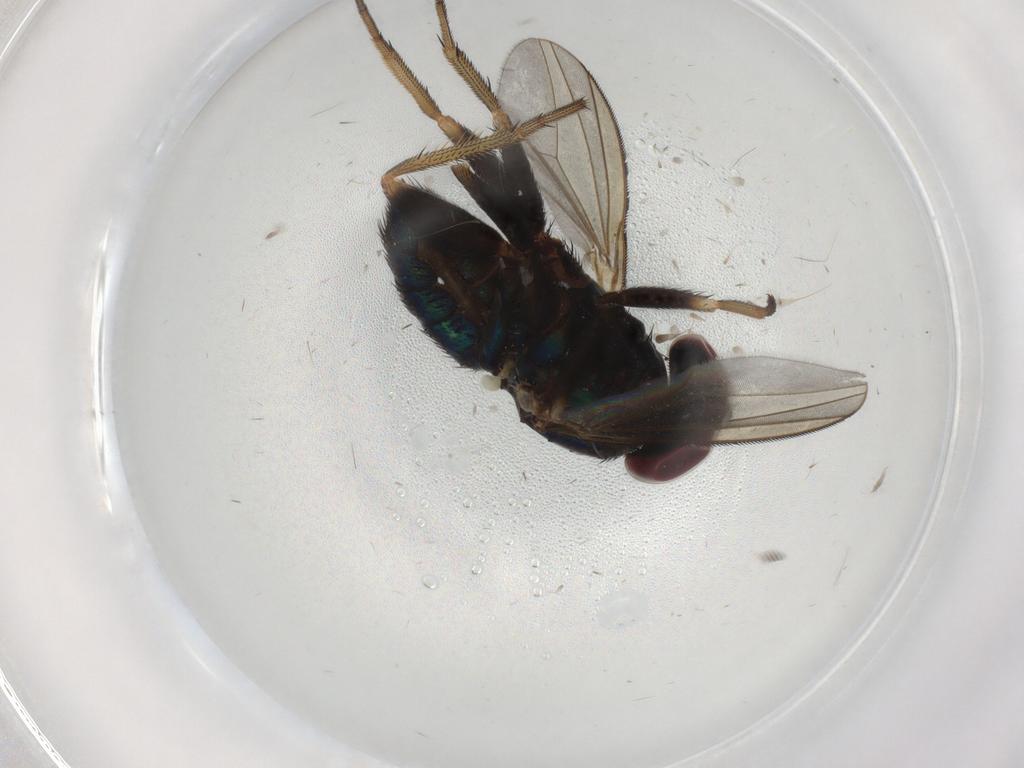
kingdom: Animalia
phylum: Arthropoda
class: Insecta
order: Diptera
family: Dolichopodidae
